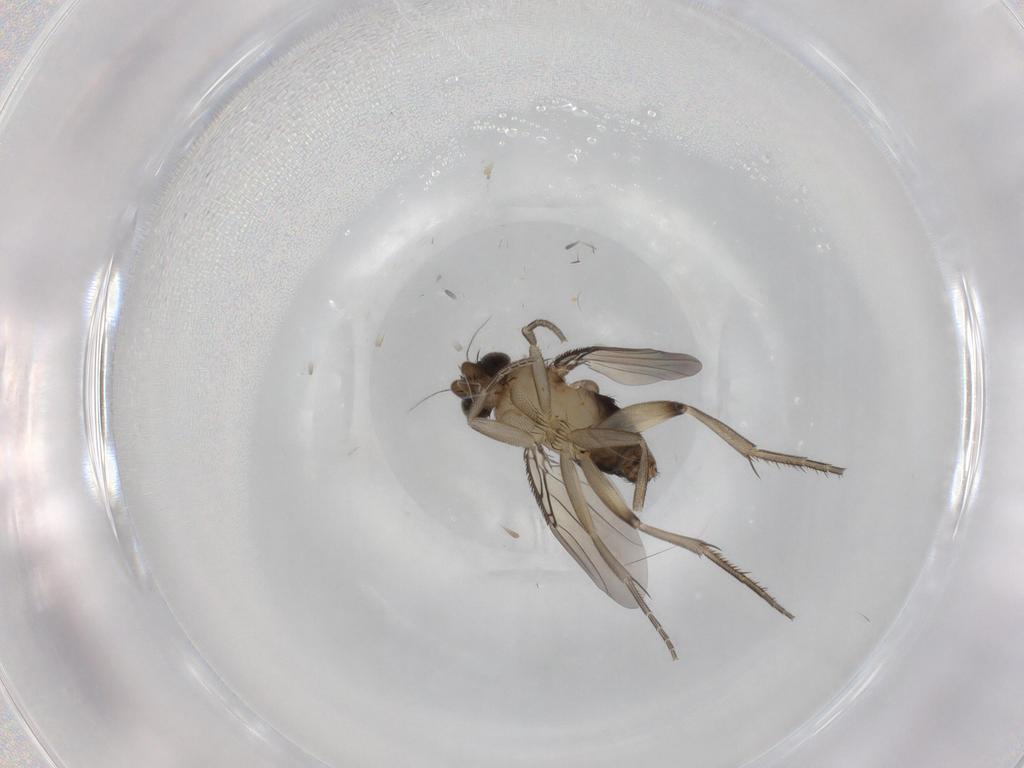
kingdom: Animalia
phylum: Arthropoda
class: Insecta
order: Diptera
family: Phoridae
